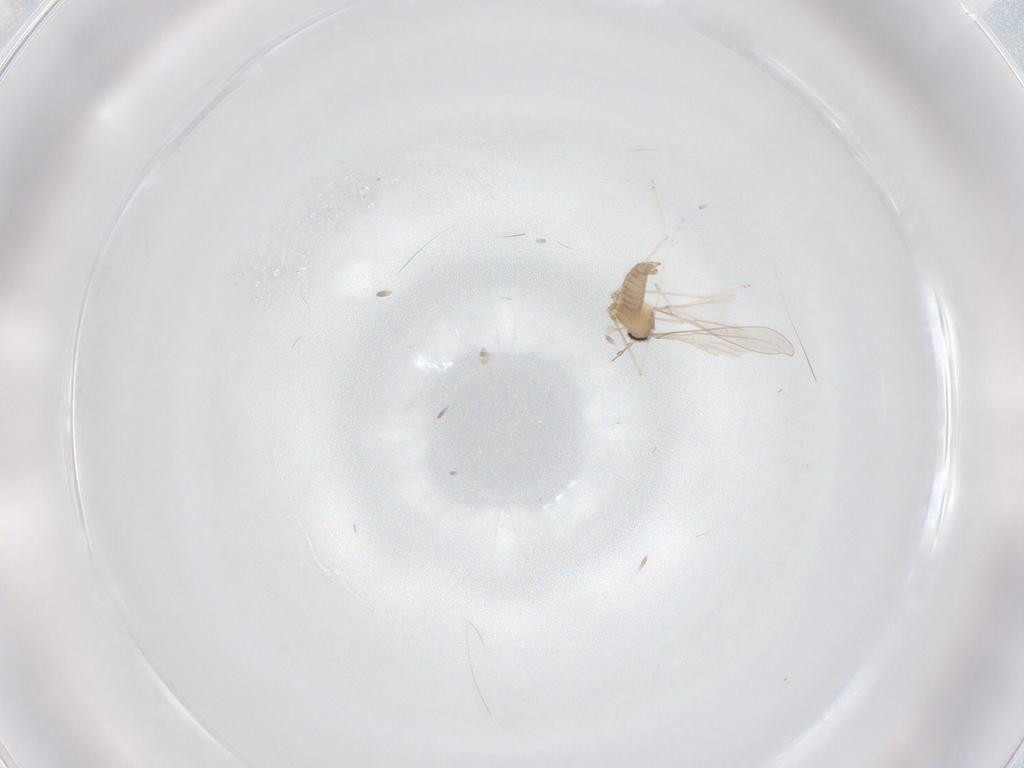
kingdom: Animalia
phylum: Arthropoda
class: Insecta
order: Diptera
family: Cecidomyiidae
